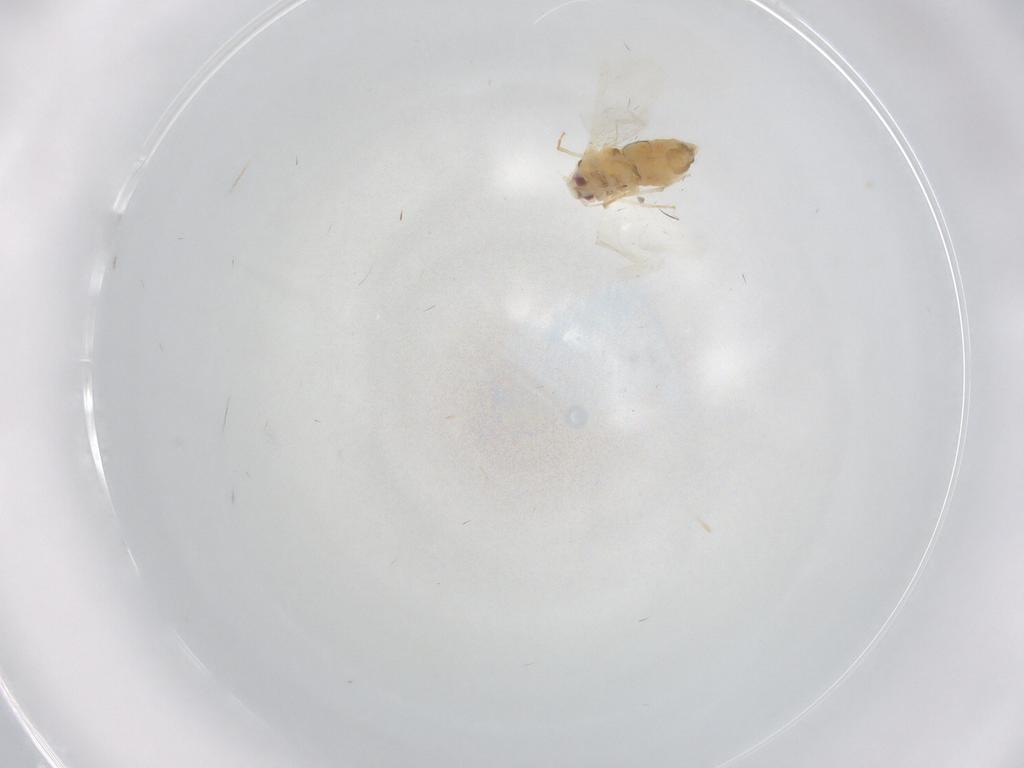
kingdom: Animalia
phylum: Arthropoda
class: Insecta
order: Hemiptera
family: Aleyrodidae
